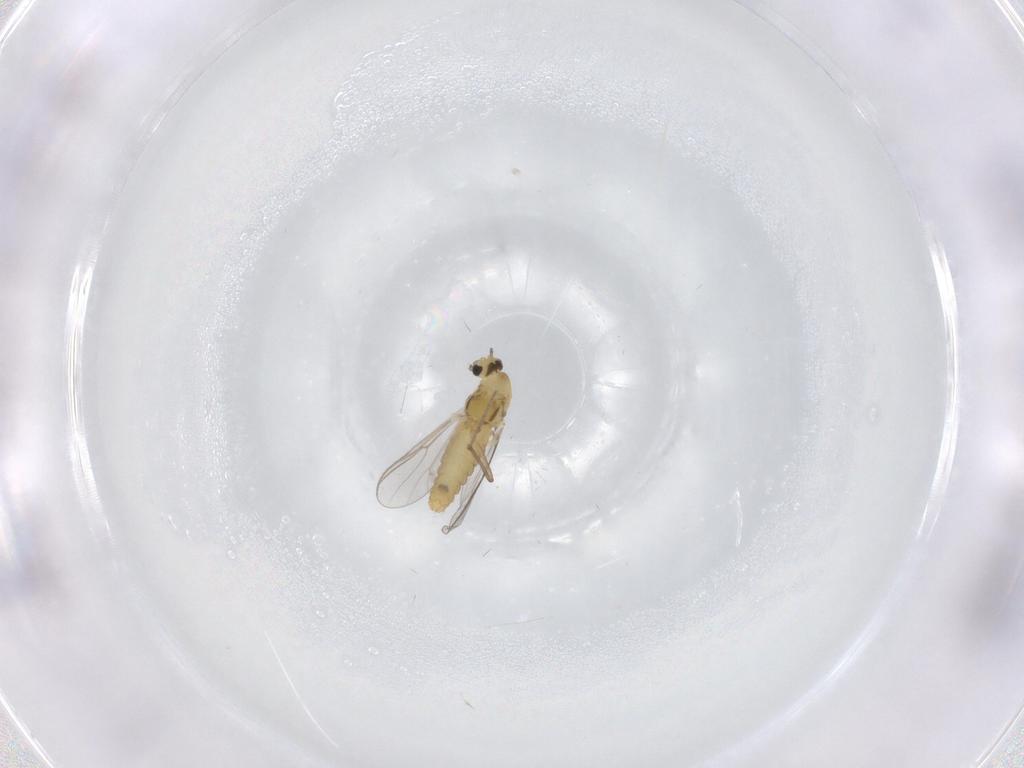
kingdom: Animalia
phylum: Arthropoda
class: Insecta
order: Diptera
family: Chironomidae
